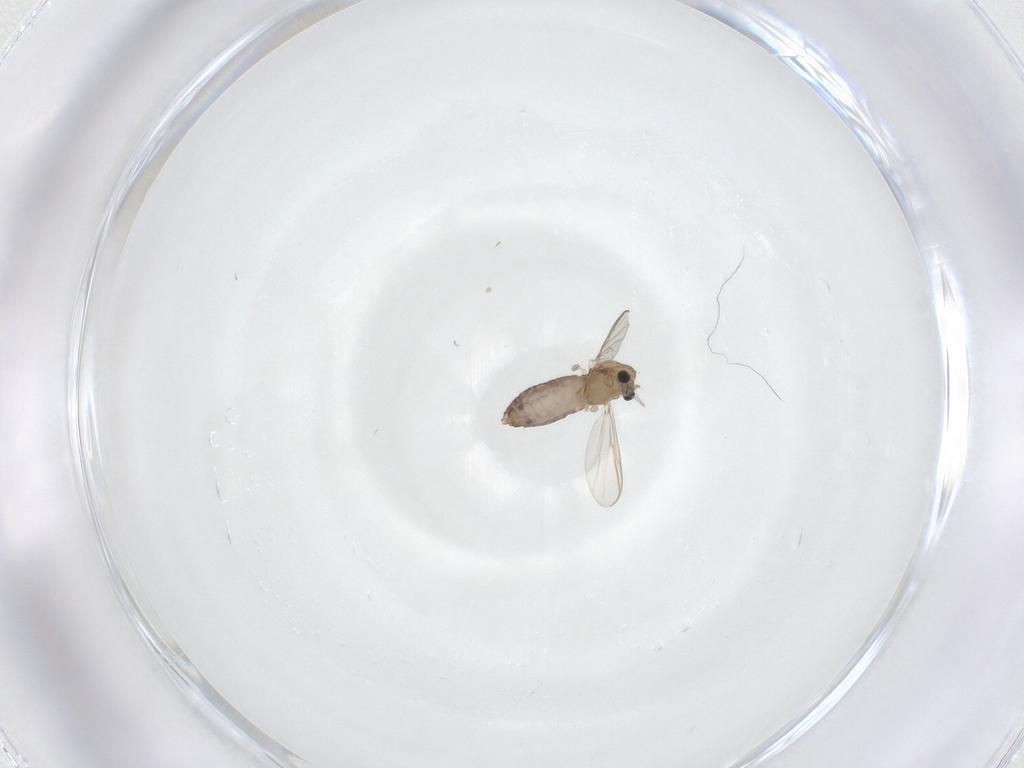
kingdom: Animalia
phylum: Arthropoda
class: Insecta
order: Diptera
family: Chironomidae
